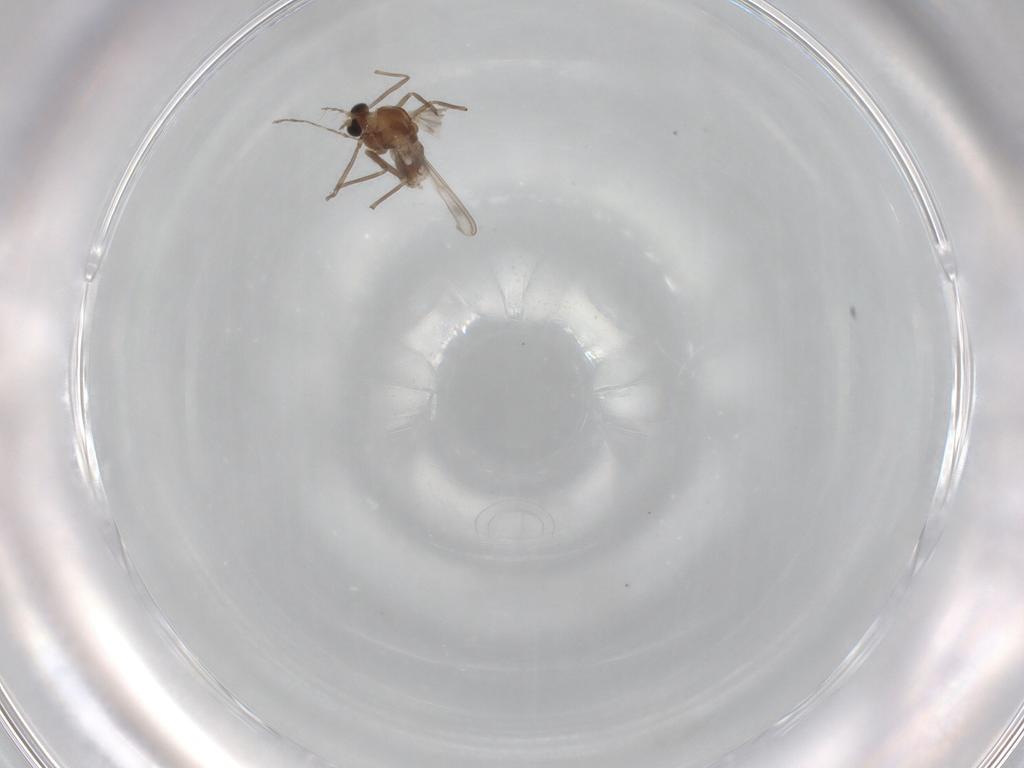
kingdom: Animalia
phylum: Arthropoda
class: Insecta
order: Diptera
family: Chironomidae
